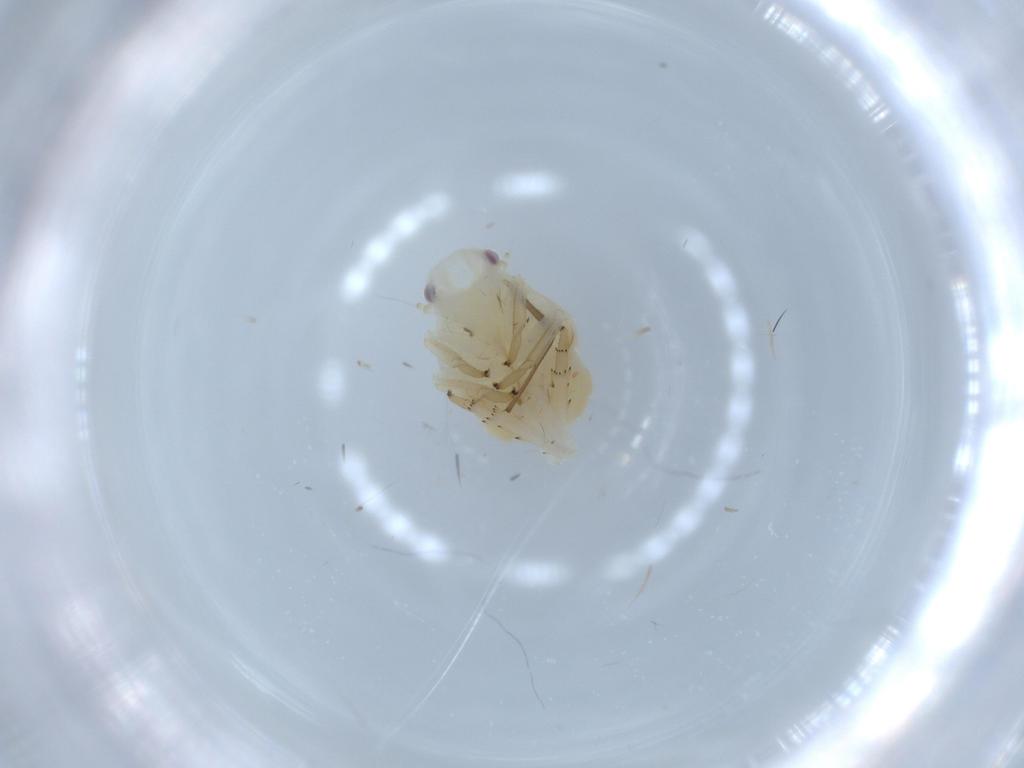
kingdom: Animalia
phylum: Arthropoda
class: Insecta
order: Hemiptera
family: Flatidae
